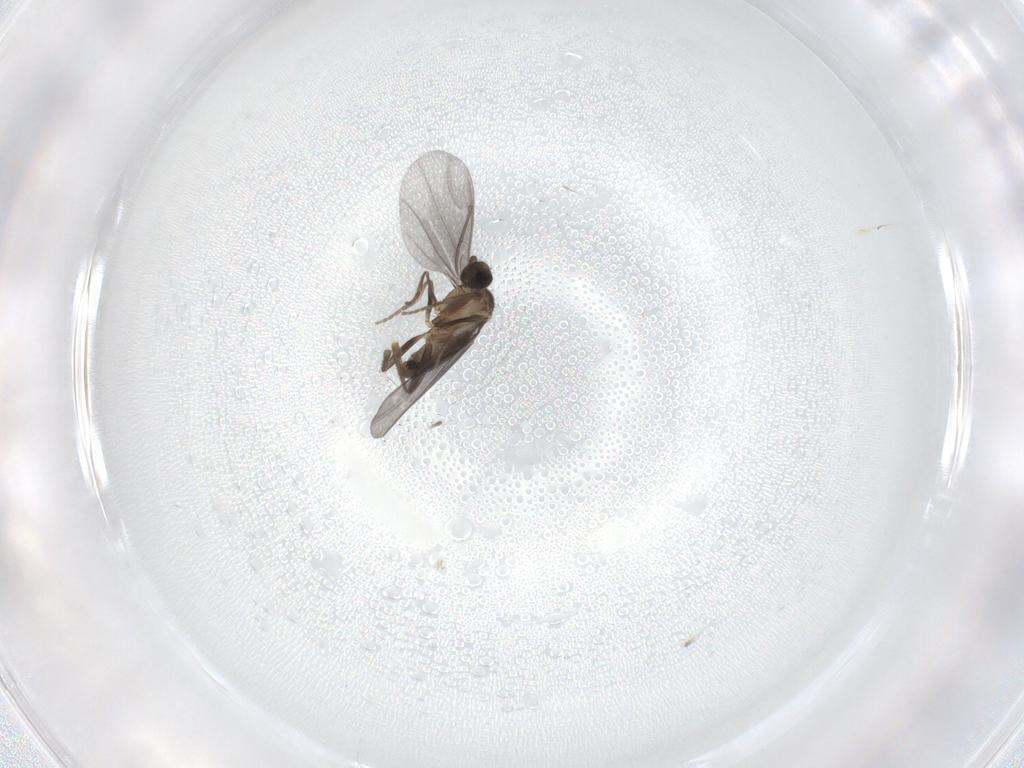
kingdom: Animalia
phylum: Arthropoda
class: Insecta
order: Diptera
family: Phoridae
